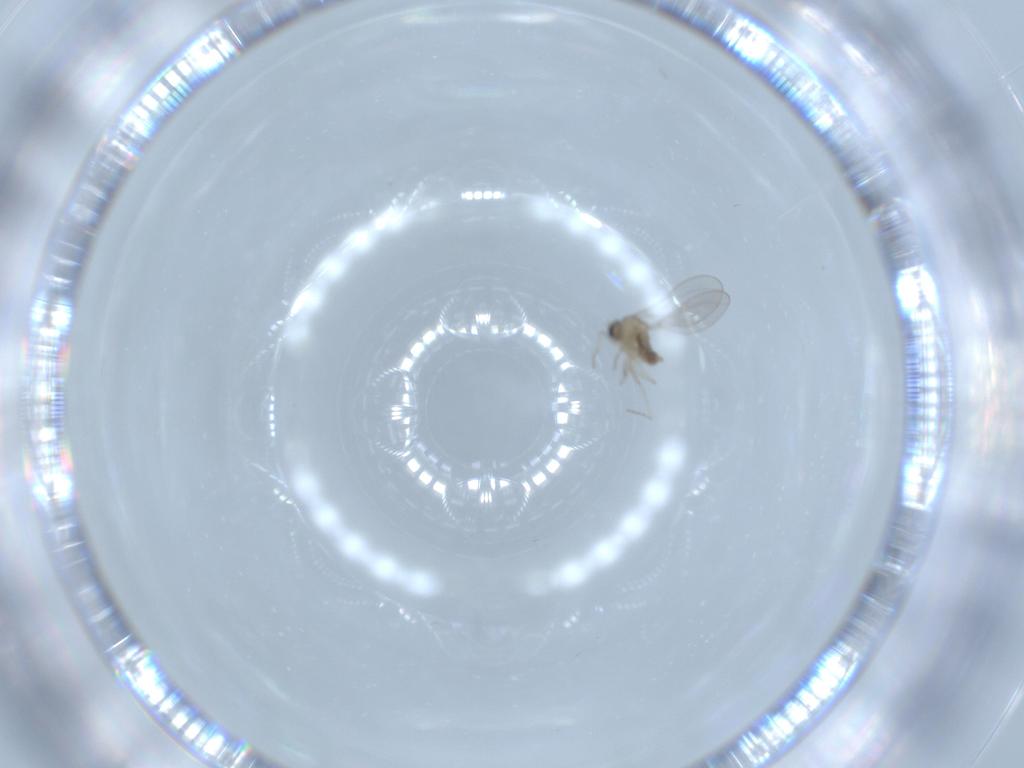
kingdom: Animalia
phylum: Arthropoda
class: Insecta
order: Diptera
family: Cecidomyiidae
